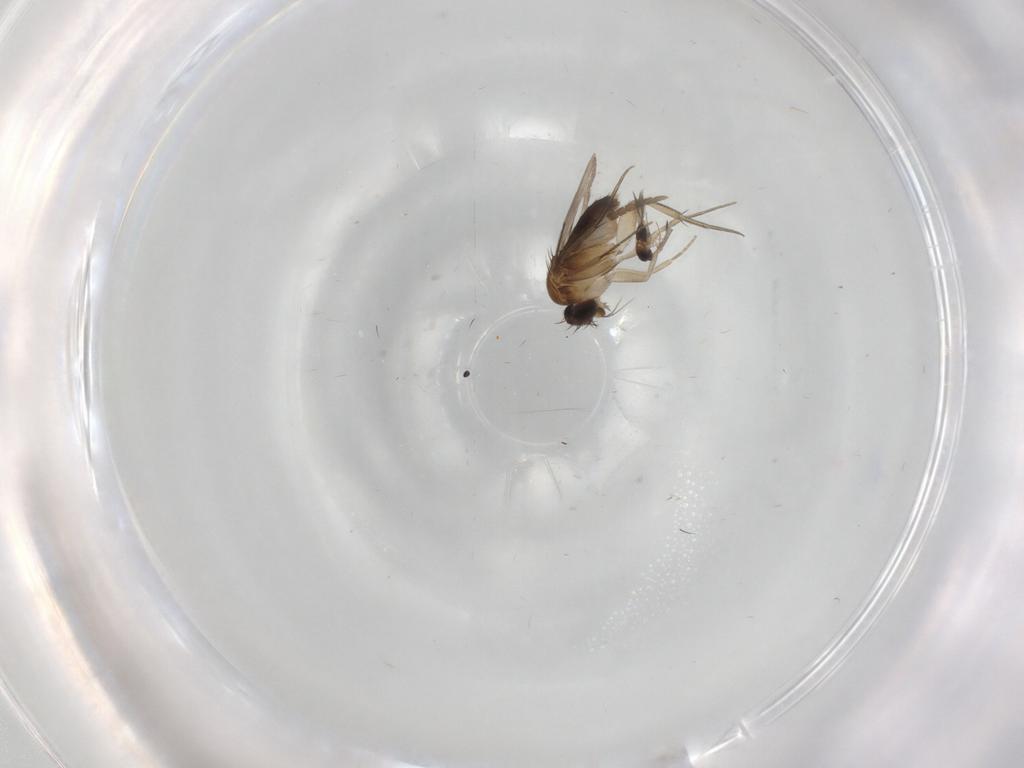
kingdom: Animalia
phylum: Arthropoda
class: Insecta
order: Diptera
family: Phoridae
